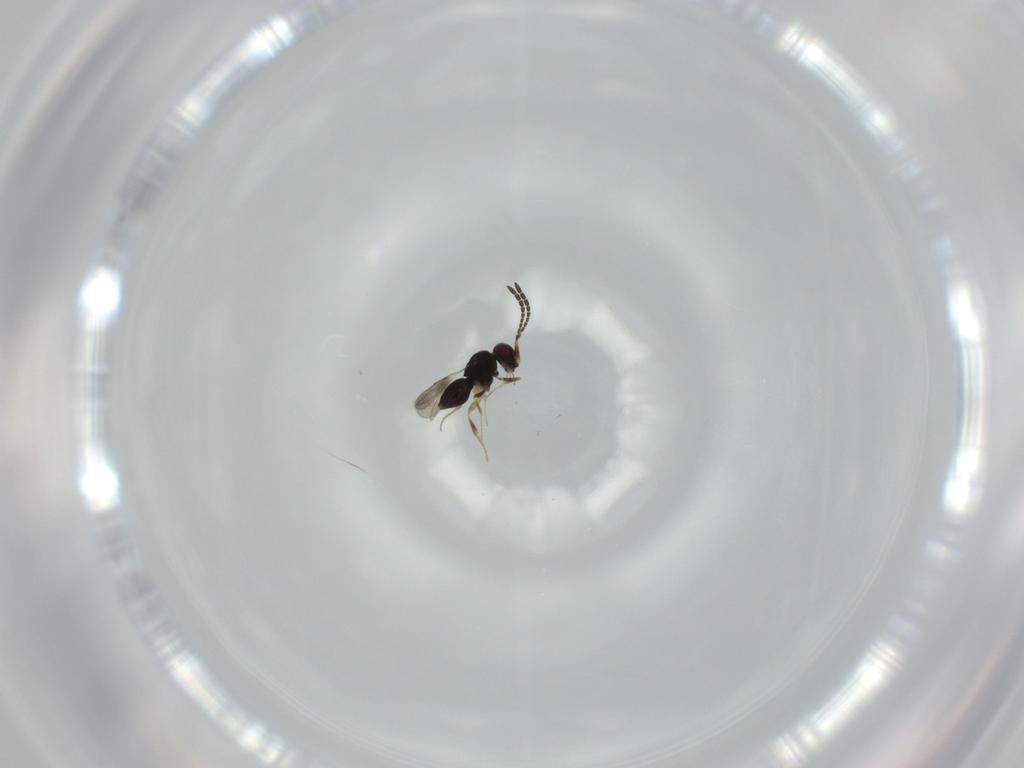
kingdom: Animalia
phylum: Arthropoda
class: Insecta
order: Hymenoptera
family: Ceraphronidae
